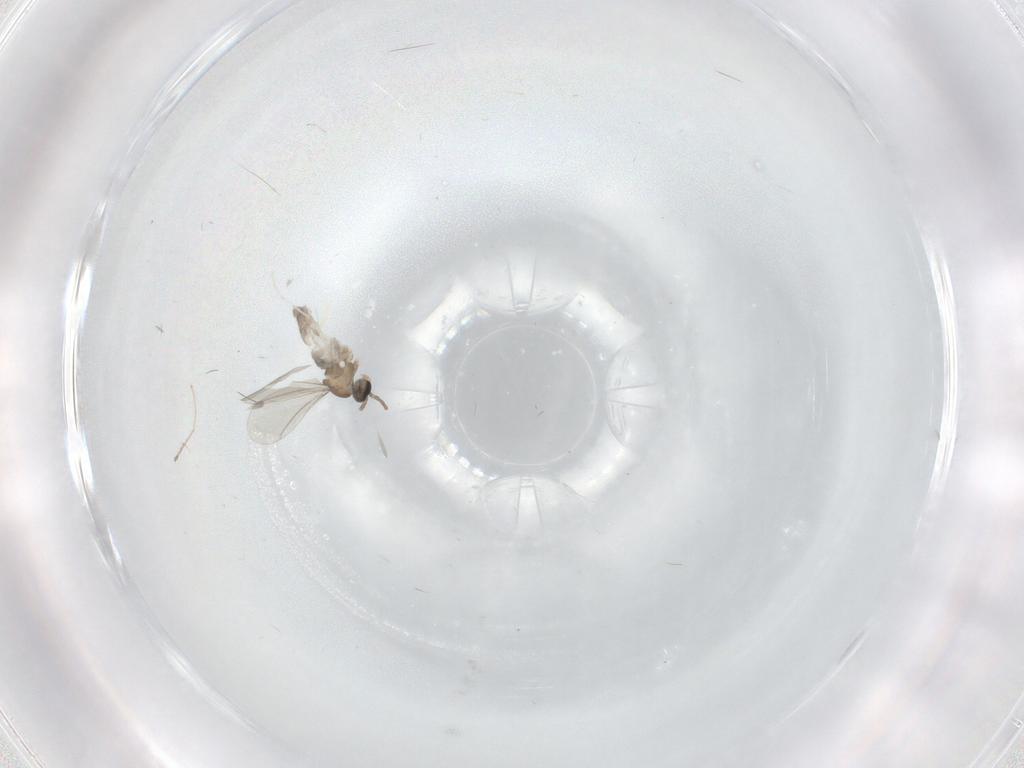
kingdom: Animalia
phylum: Arthropoda
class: Insecta
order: Diptera
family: Cecidomyiidae
